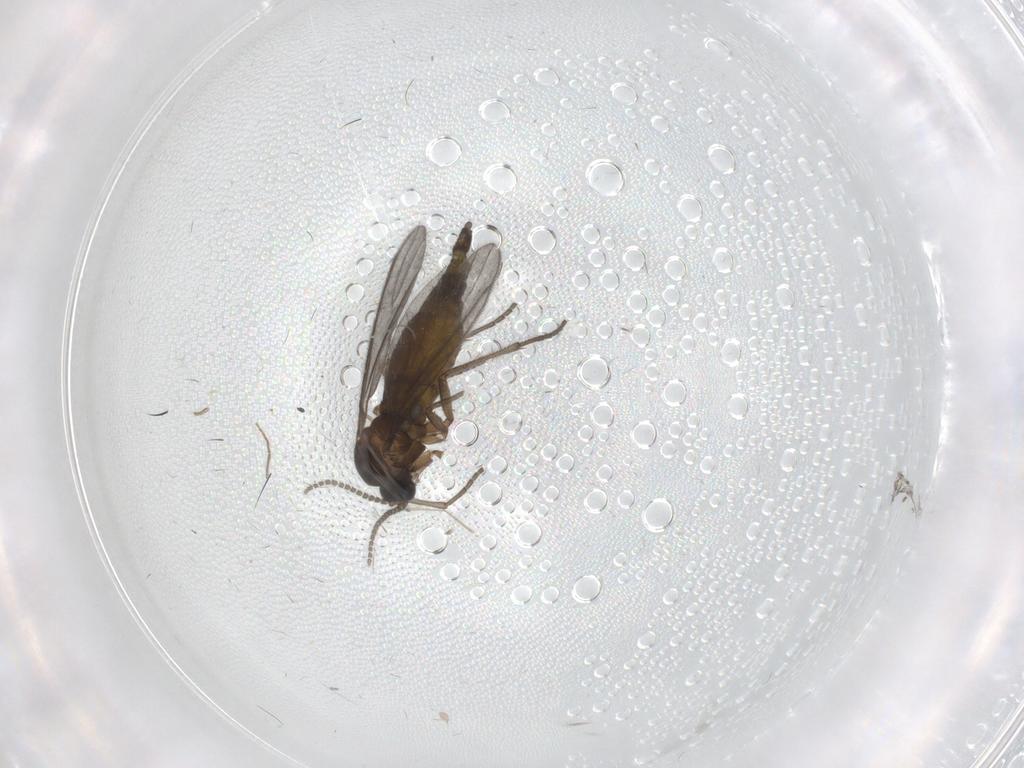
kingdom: Animalia
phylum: Arthropoda
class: Insecta
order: Diptera
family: Sciaridae
